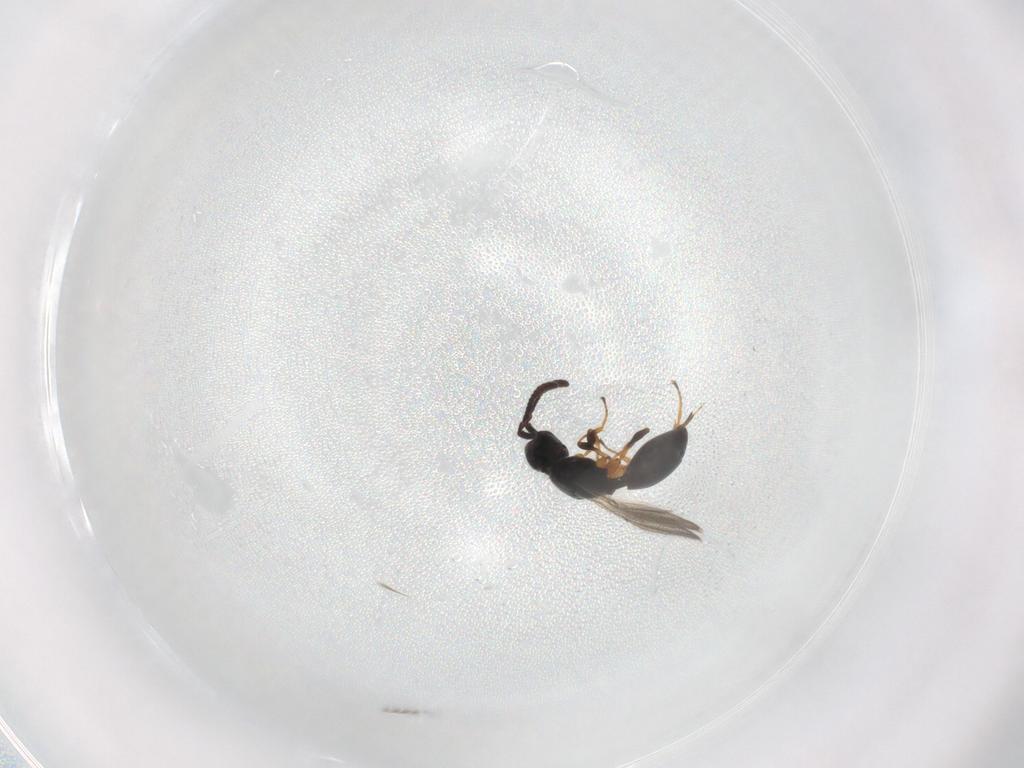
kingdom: Animalia
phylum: Arthropoda
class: Insecta
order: Hymenoptera
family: Diapriidae
